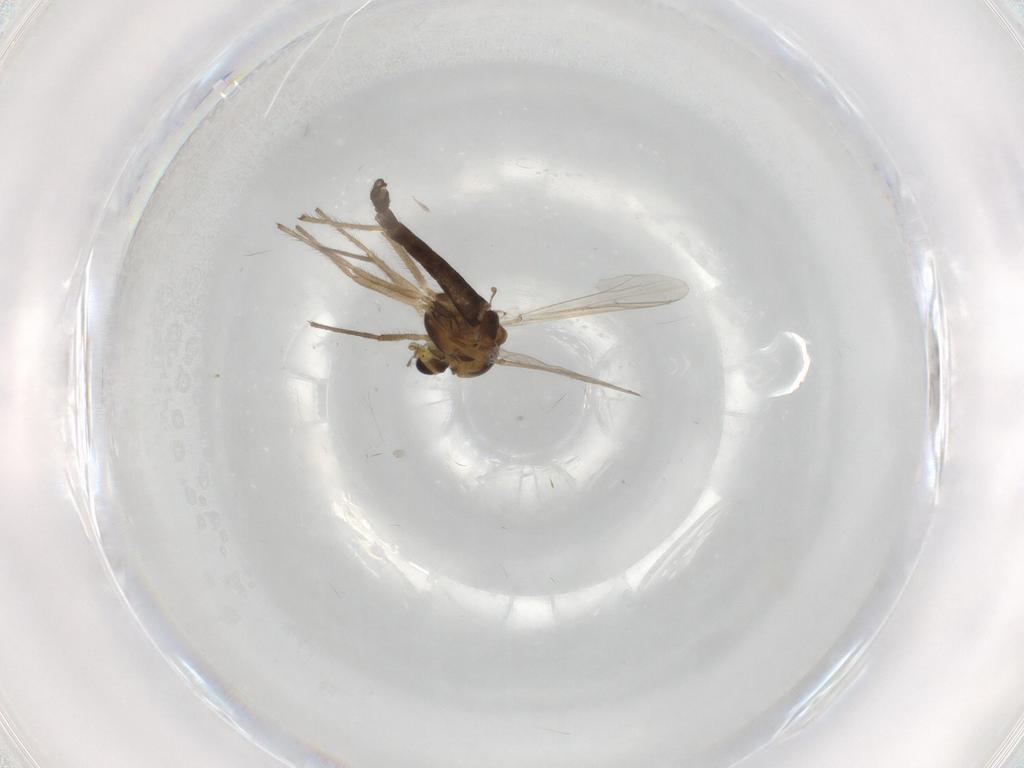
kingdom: Animalia
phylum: Arthropoda
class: Insecta
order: Diptera
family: Chironomidae
